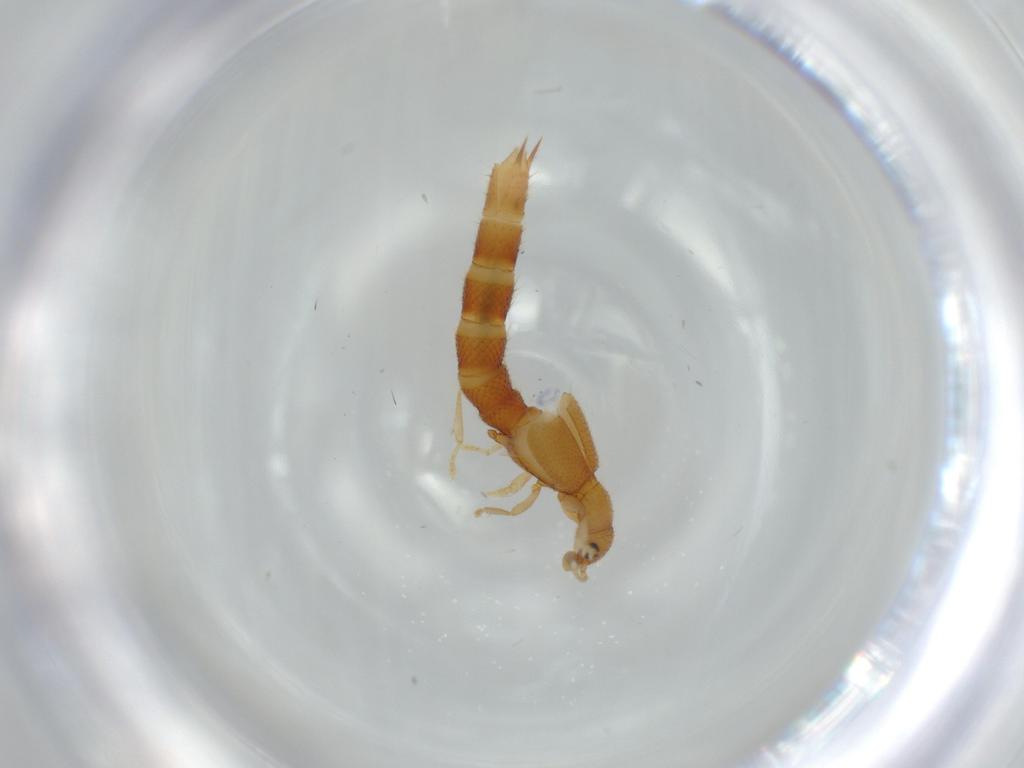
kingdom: Animalia
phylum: Arthropoda
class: Insecta
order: Coleoptera
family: Staphylinidae
